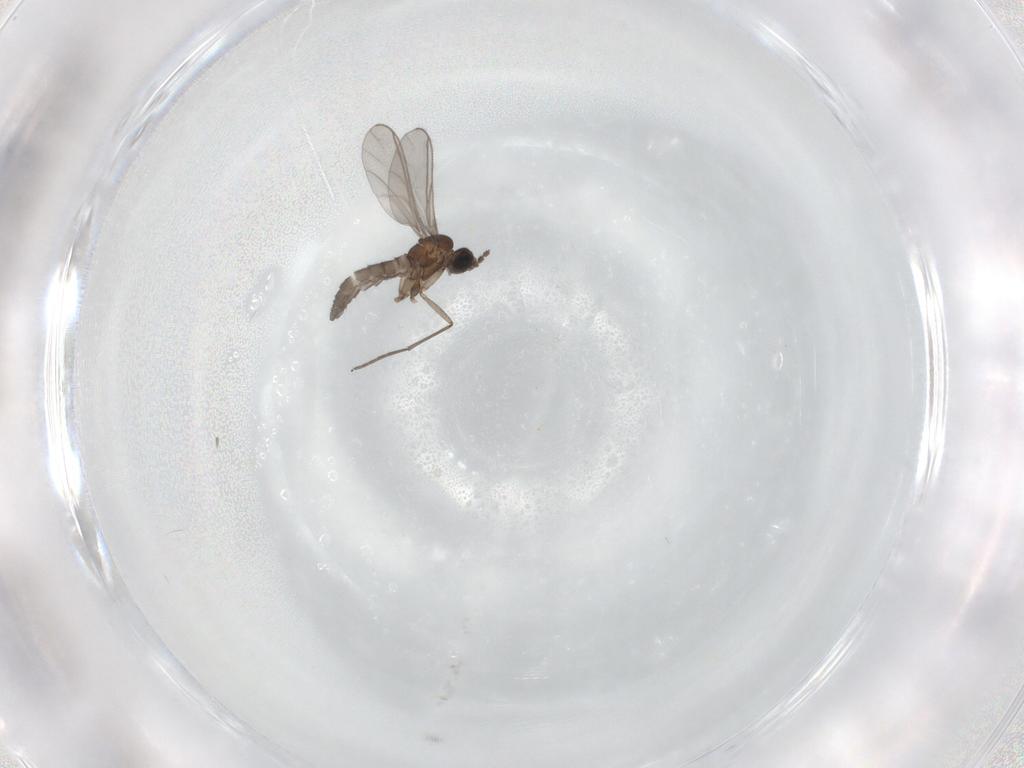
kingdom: Animalia
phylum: Arthropoda
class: Insecta
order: Diptera
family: Sciaridae
